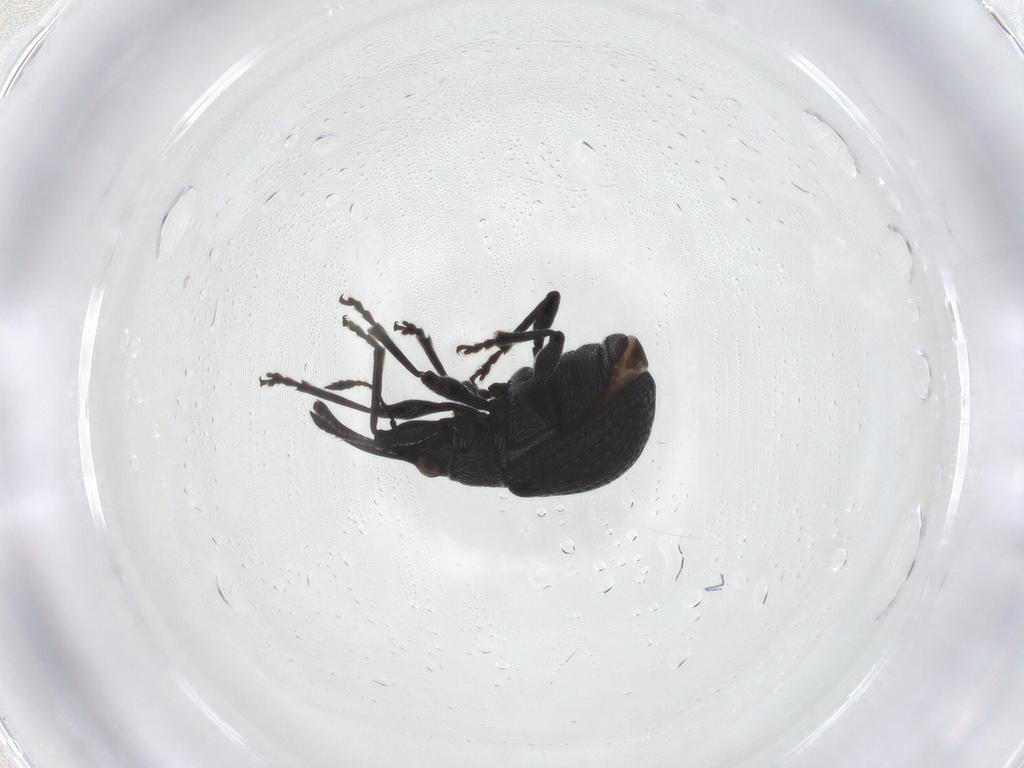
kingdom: Animalia
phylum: Arthropoda
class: Insecta
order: Coleoptera
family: Brentidae
